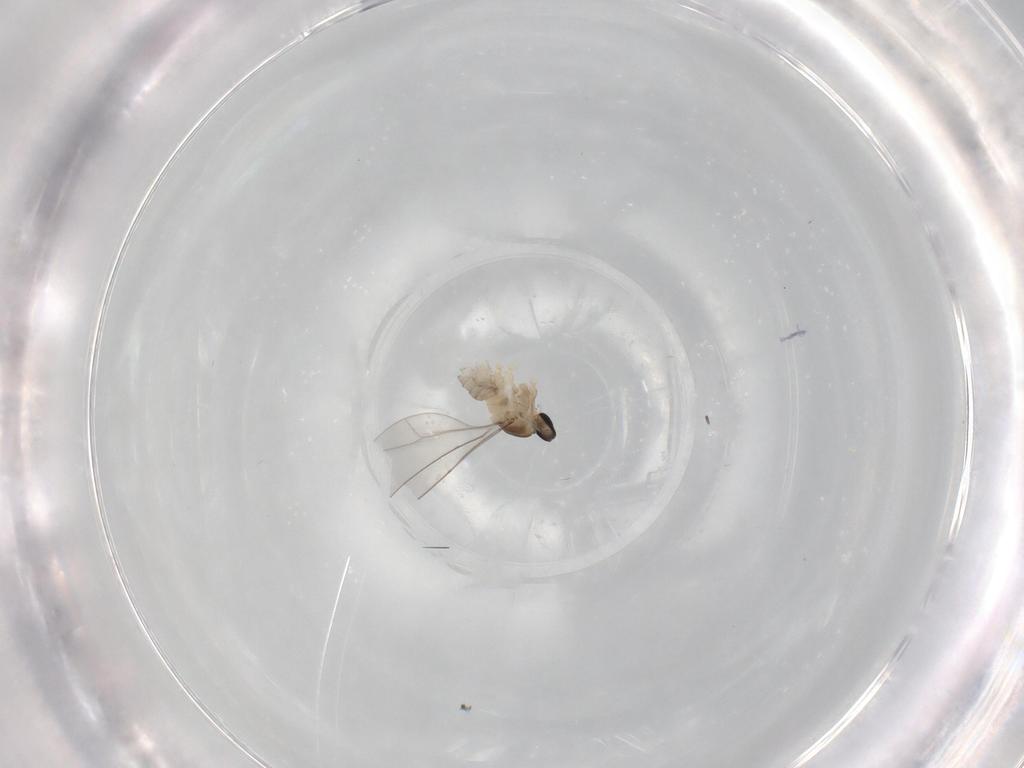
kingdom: Animalia
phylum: Arthropoda
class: Insecta
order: Diptera
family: Cecidomyiidae
